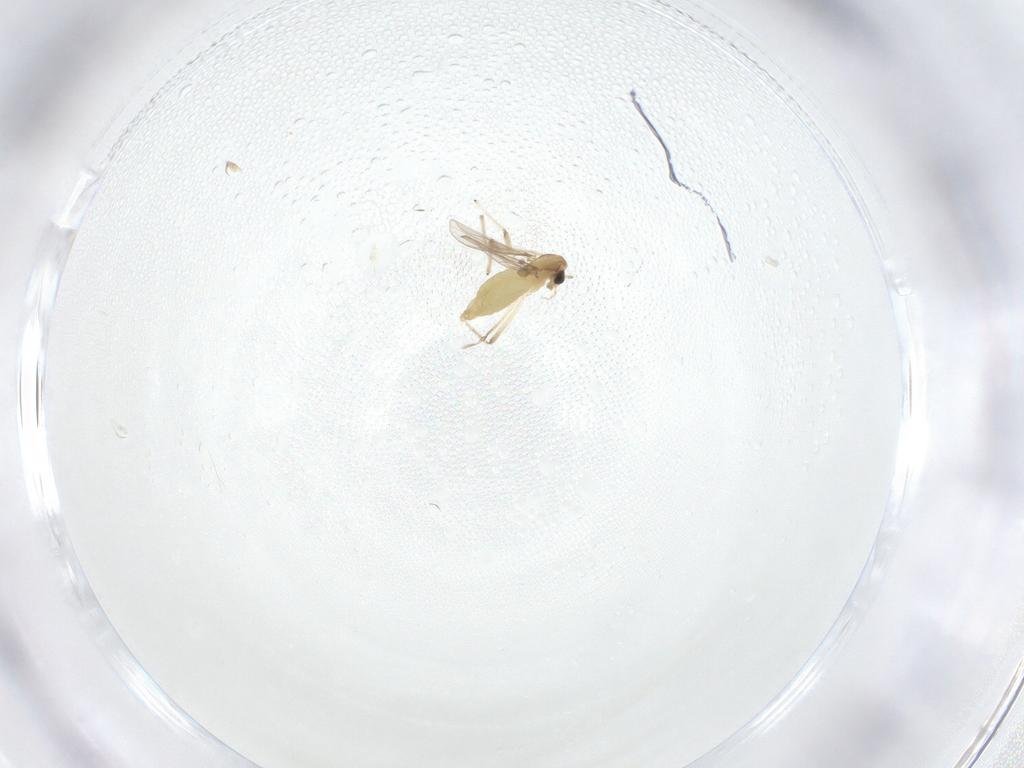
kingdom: Animalia
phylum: Arthropoda
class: Insecta
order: Diptera
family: Chironomidae
